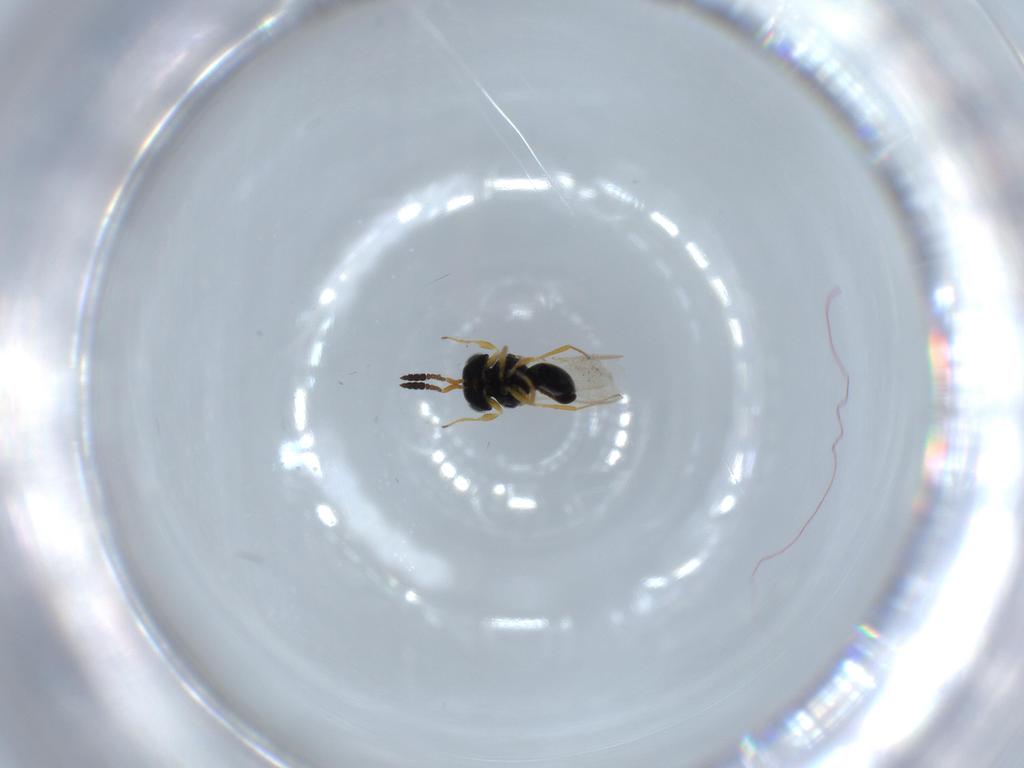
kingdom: Animalia
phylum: Arthropoda
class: Insecta
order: Hymenoptera
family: Scelionidae
